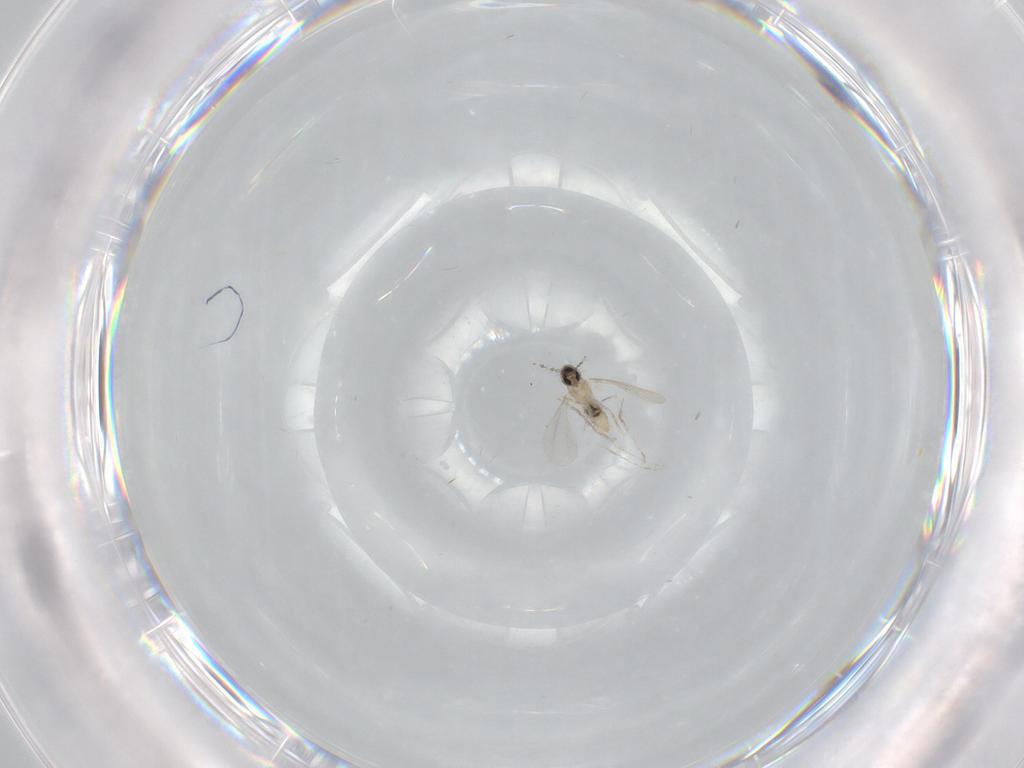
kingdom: Animalia
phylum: Arthropoda
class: Insecta
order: Diptera
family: Cecidomyiidae
